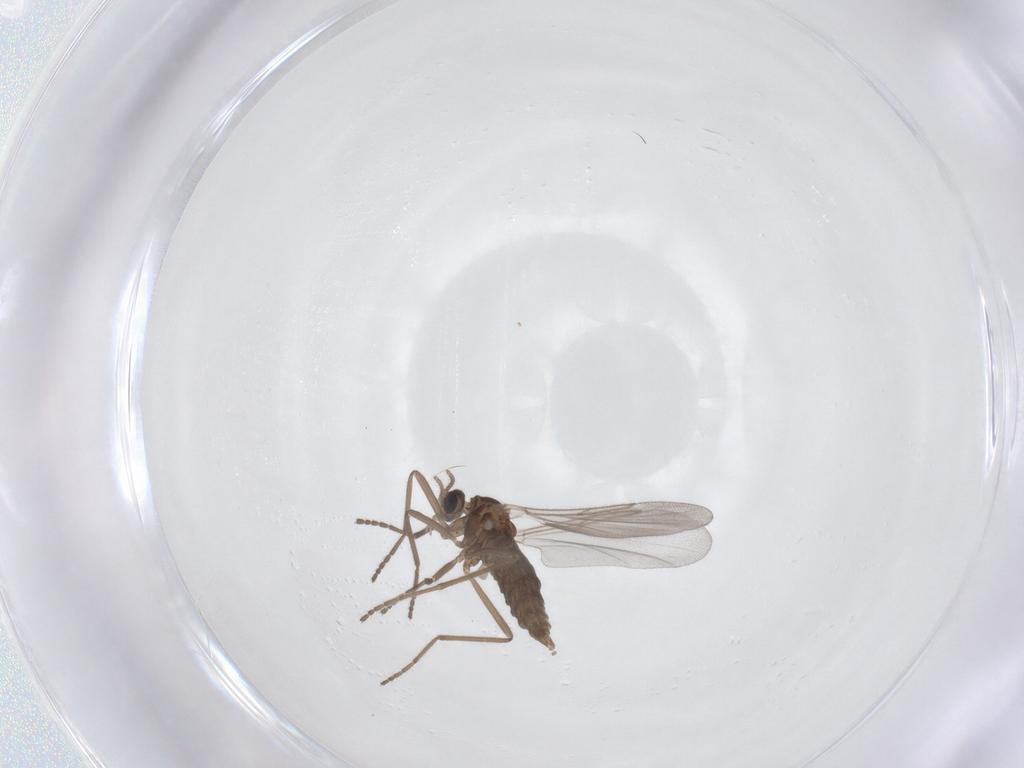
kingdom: Animalia
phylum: Arthropoda
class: Insecta
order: Diptera
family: Cecidomyiidae
